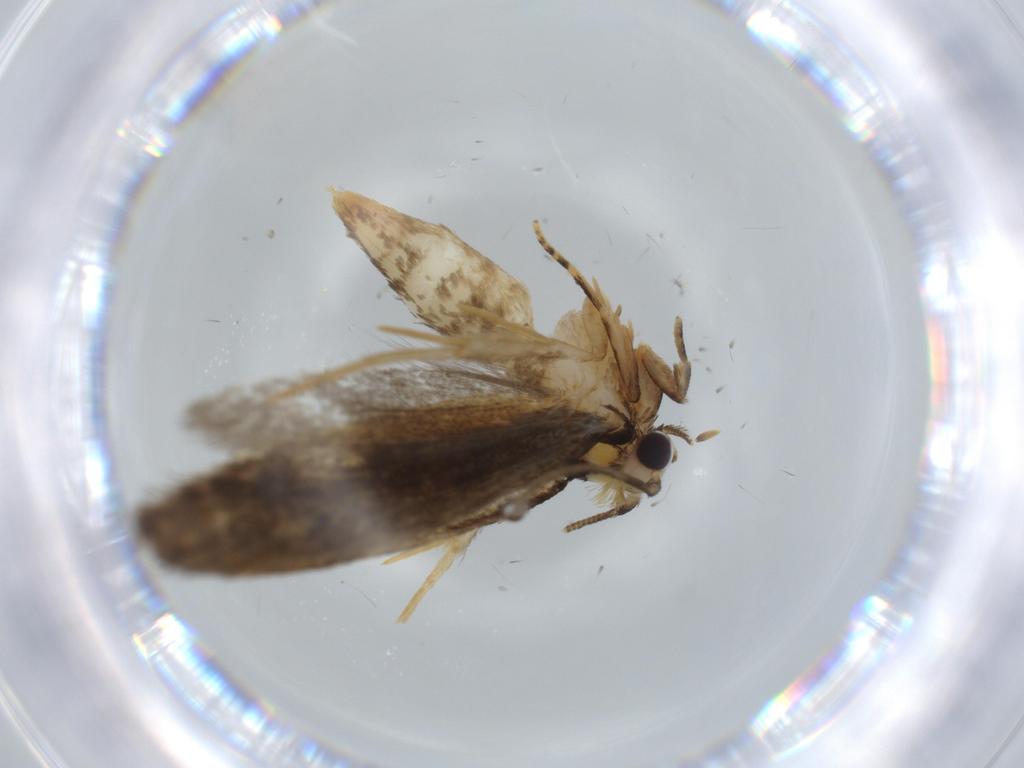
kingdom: Animalia
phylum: Arthropoda
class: Insecta
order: Lepidoptera
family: Tineidae
